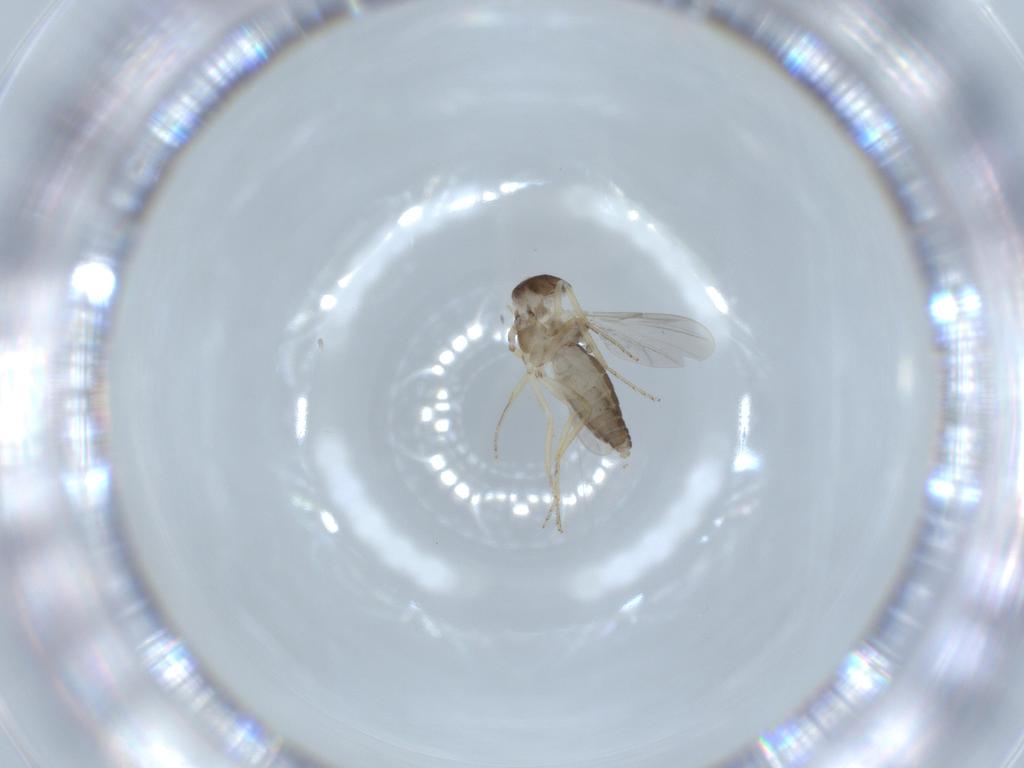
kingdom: Animalia
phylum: Arthropoda
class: Insecta
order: Diptera
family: Ceratopogonidae
